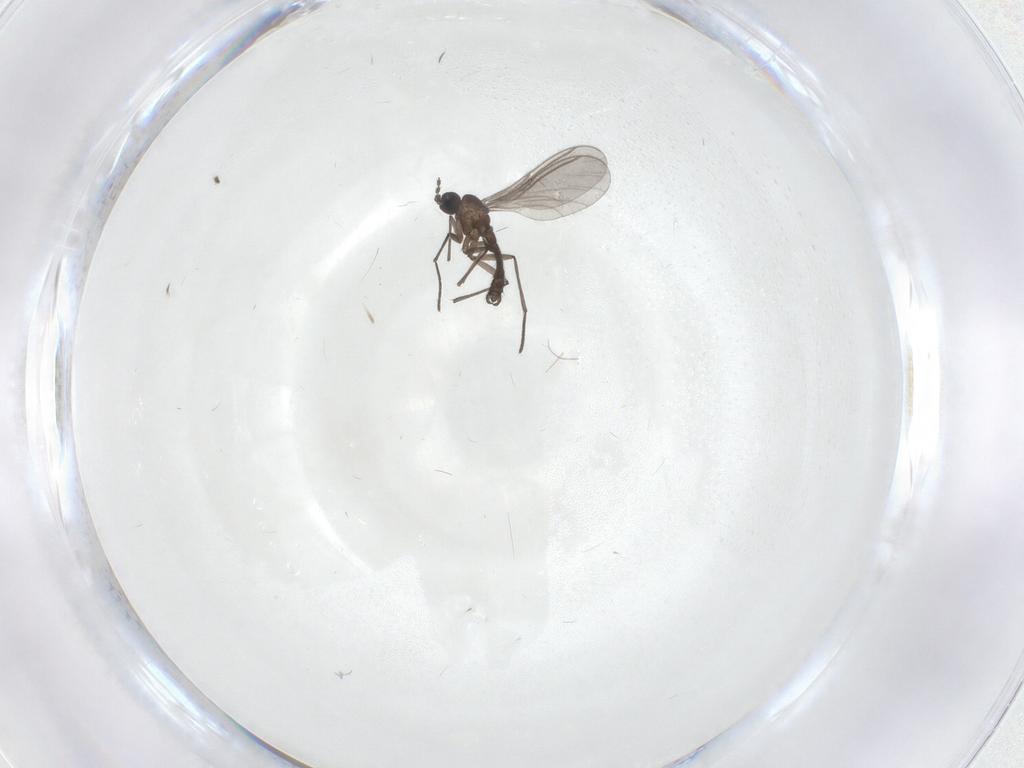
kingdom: Animalia
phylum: Arthropoda
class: Insecta
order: Diptera
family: Chironomidae
